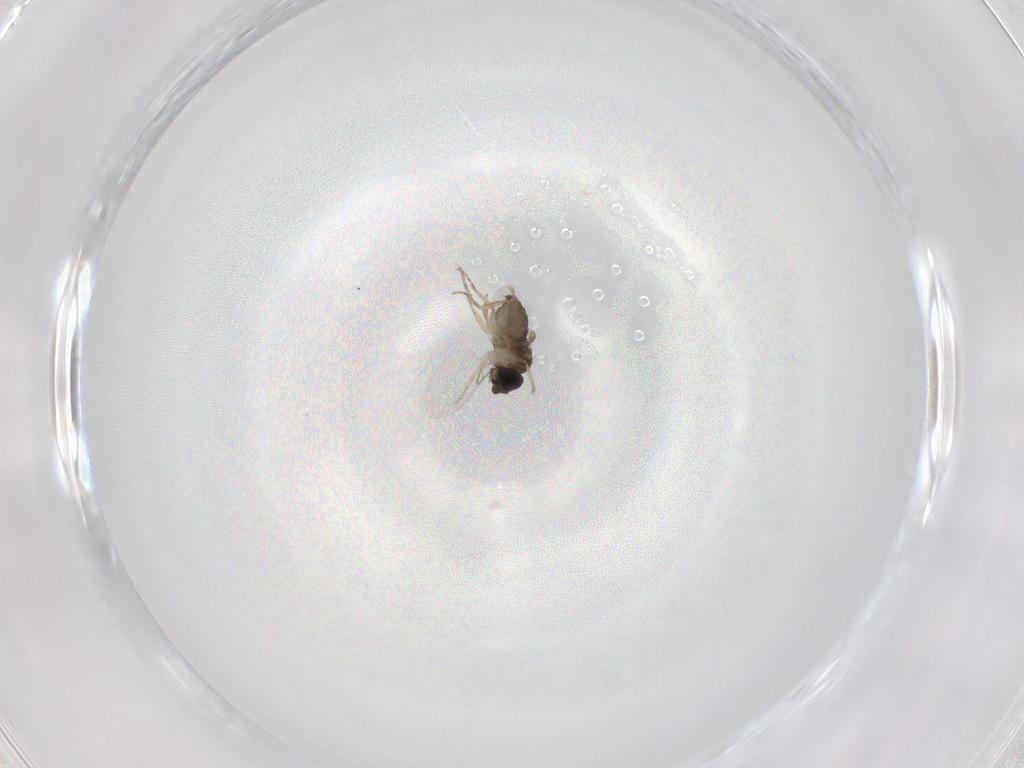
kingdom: Animalia
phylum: Arthropoda
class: Insecta
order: Diptera
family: Phoridae
